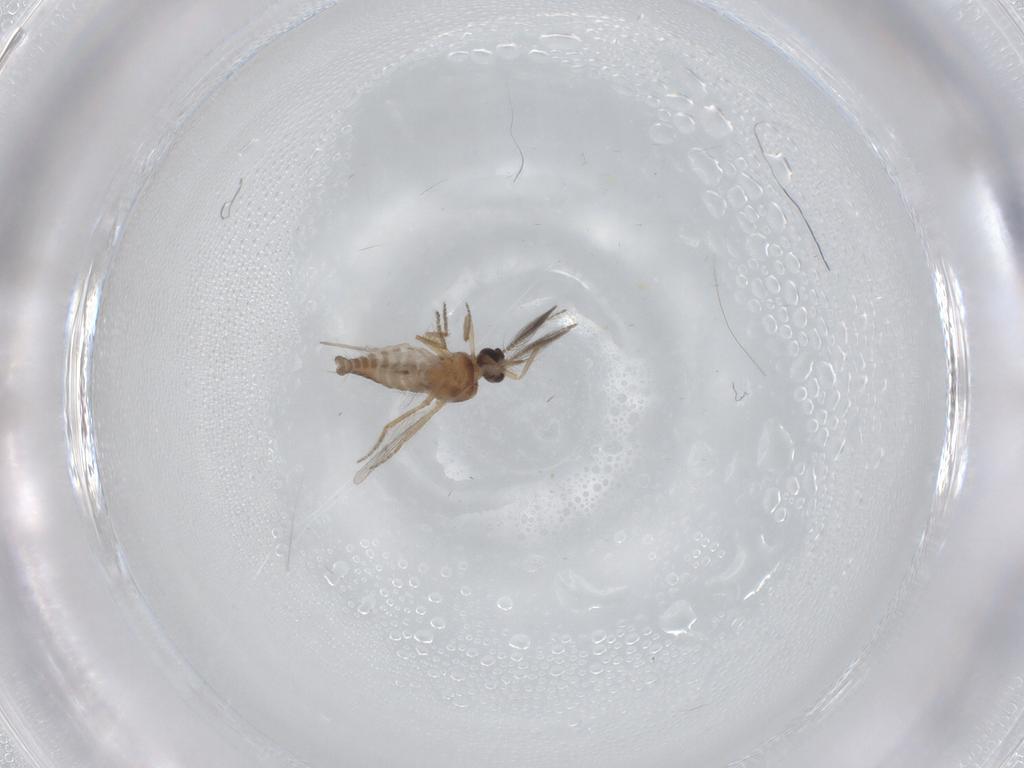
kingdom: Animalia
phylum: Arthropoda
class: Insecta
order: Diptera
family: Ceratopogonidae
